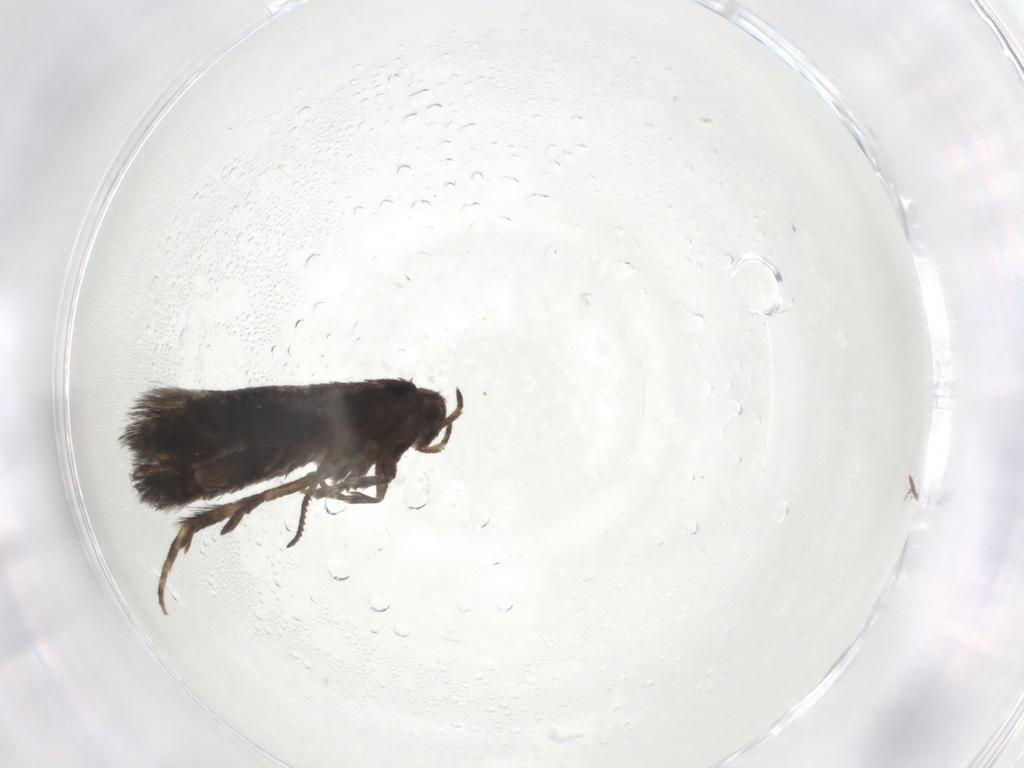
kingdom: Animalia
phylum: Arthropoda
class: Insecta
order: Lepidoptera
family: Elachistidae
